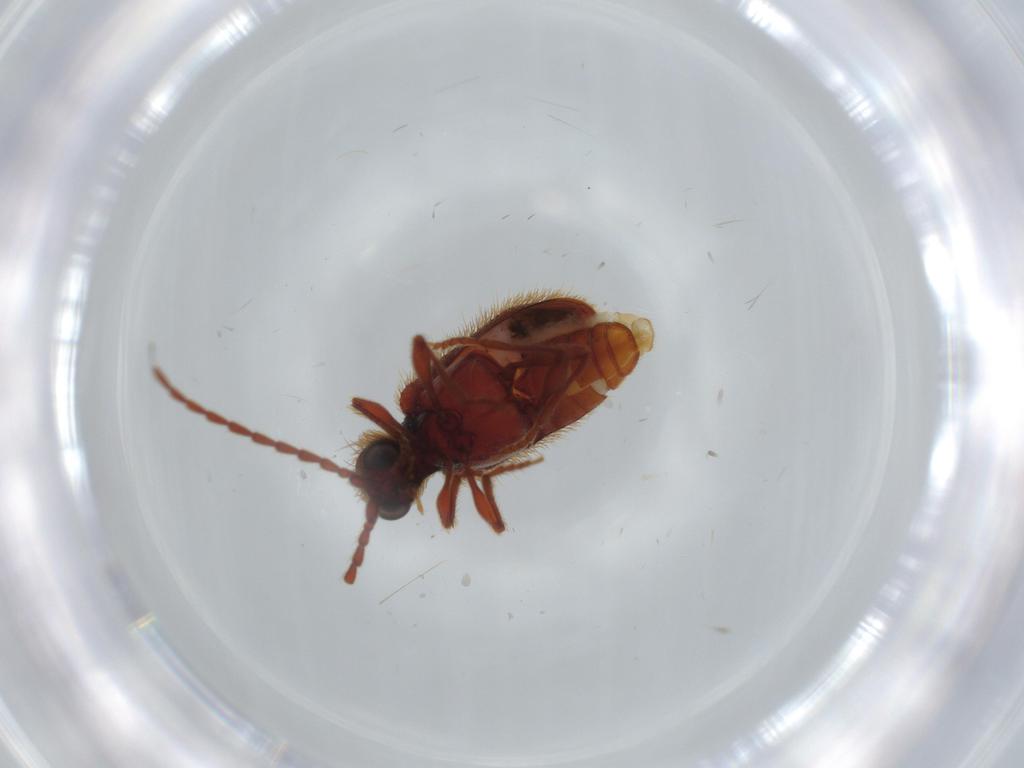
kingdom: Animalia
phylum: Arthropoda
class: Insecta
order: Coleoptera
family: Ptinidae
